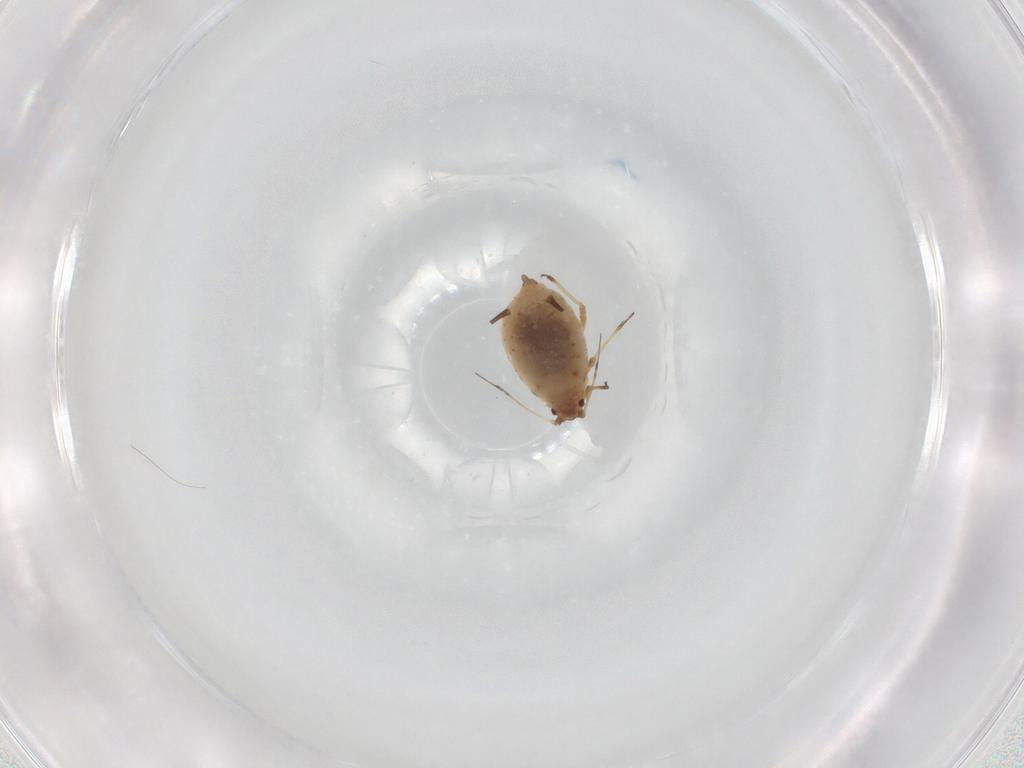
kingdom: Animalia
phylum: Arthropoda
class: Insecta
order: Hemiptera
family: Aphididae
